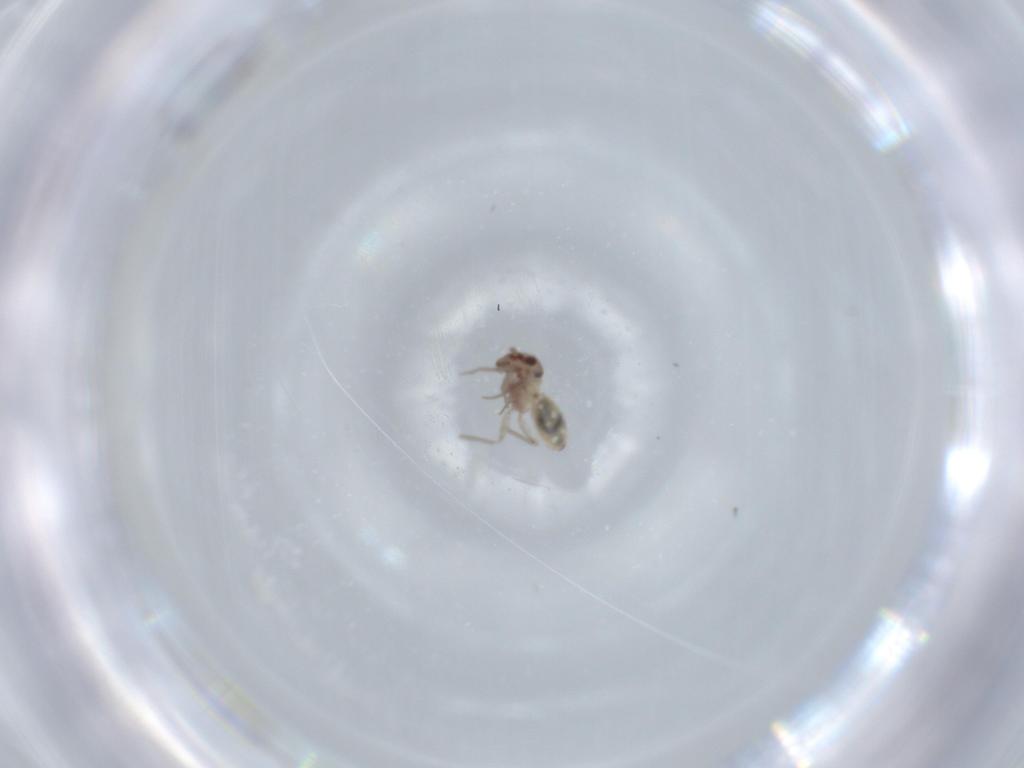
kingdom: Animalia
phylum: Arthropoda
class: Insecta
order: Psocodea
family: Lepidopsocidae
